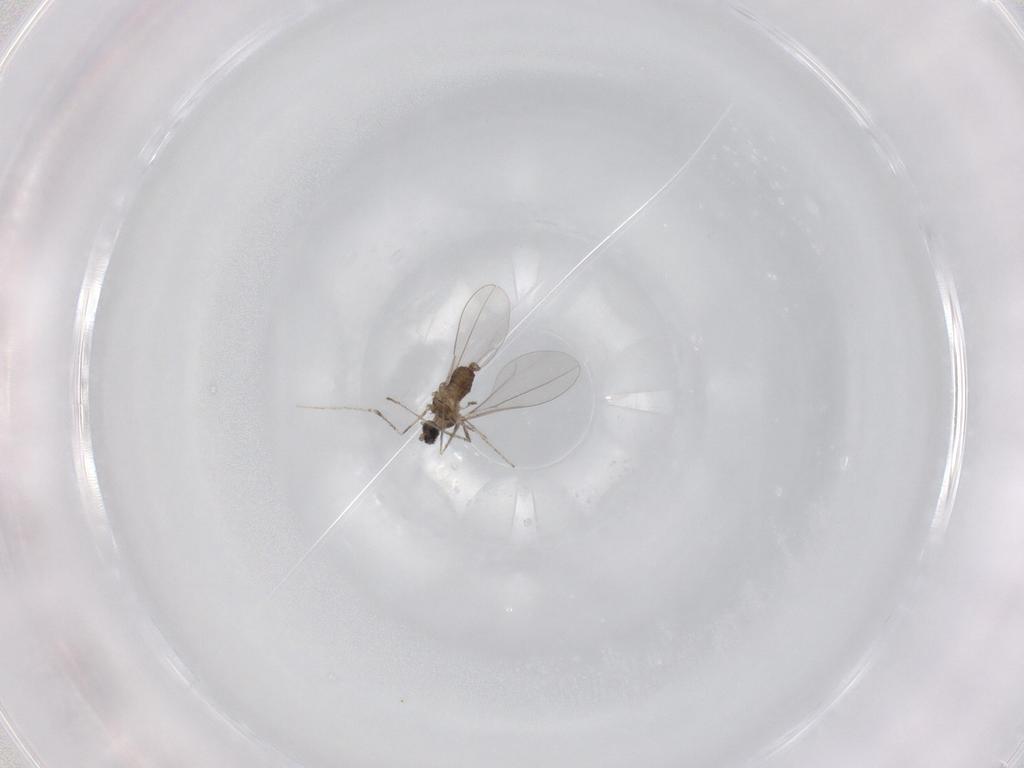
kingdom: Animalia
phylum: Arthropoda
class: Insecta
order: Diptera
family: Cecidomyiidae
